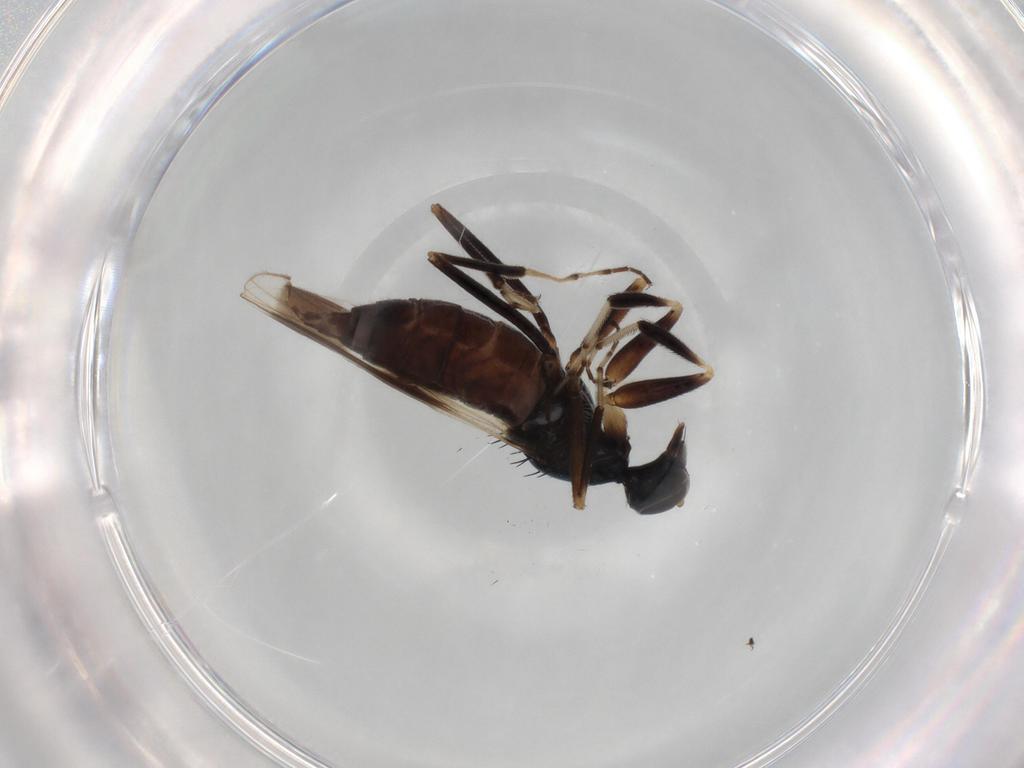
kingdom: Animalia
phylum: Arthropoda
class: Insecta
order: Diptera
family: Hybotidae
